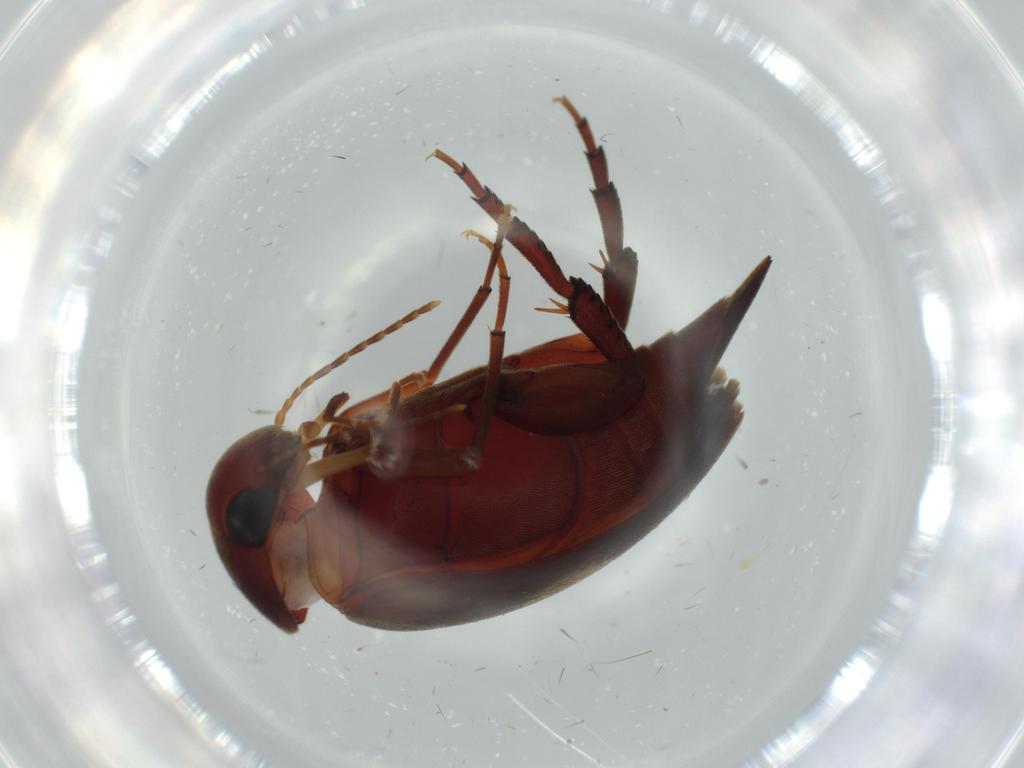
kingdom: Animalia
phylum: Arthropoda
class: Insecta
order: Coleoptera
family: Mordellidae
